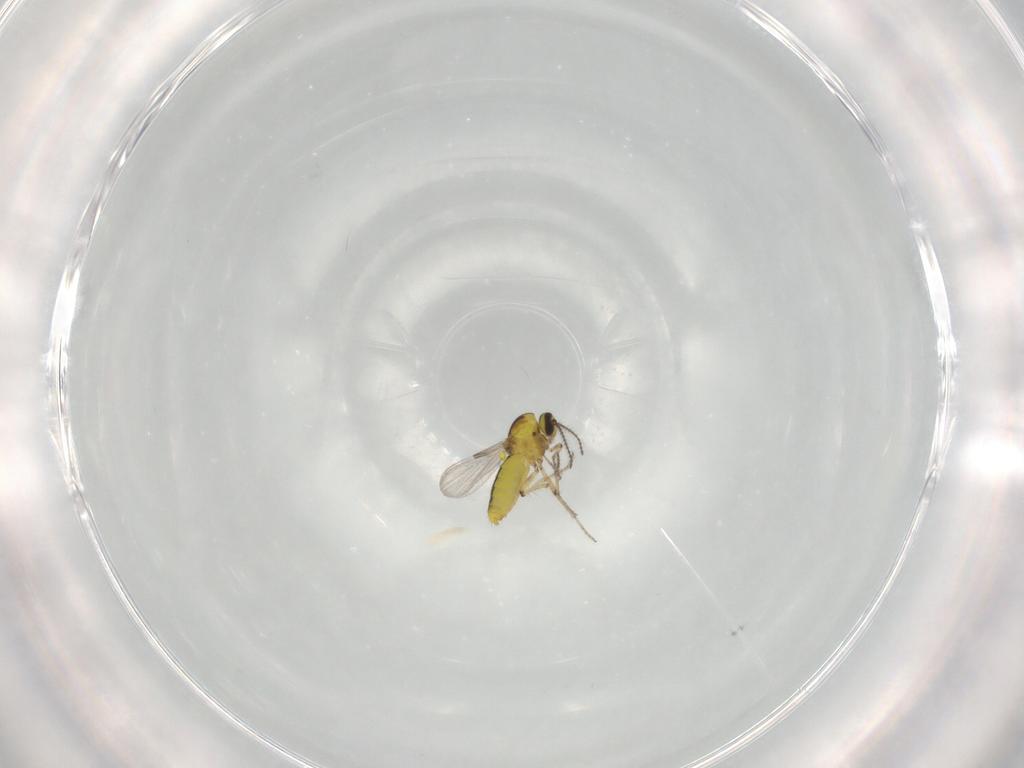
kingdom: Animalia
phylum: Arthropoda
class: Insecta
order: Diptera
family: Psychodidae
